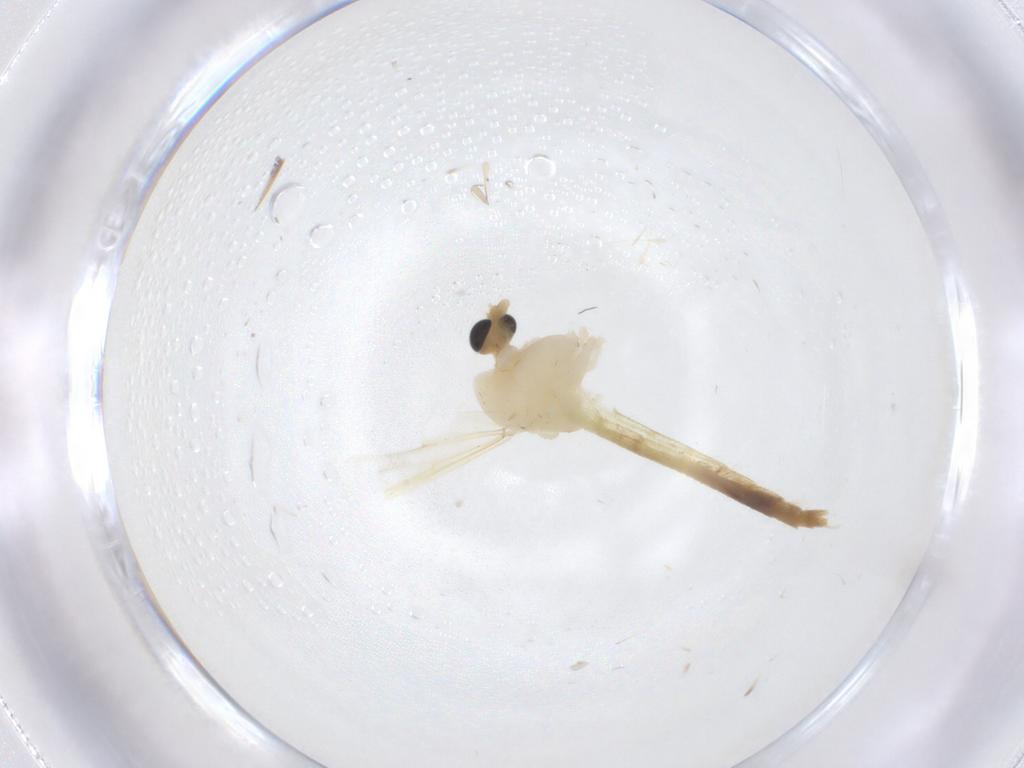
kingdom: Animalia
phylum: Arthropoda
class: Insecta
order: Diptera
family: Chironomidae
